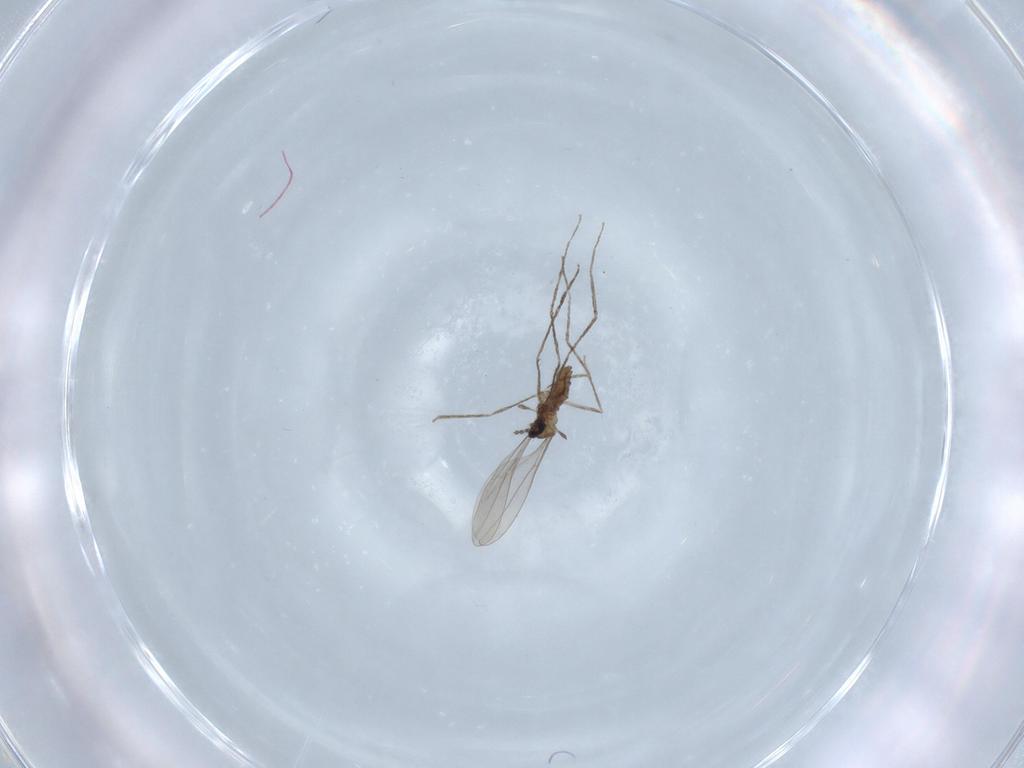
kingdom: Animalia
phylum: Arthropoda
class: Insecta
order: Diptera
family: Cecidomyiidae
